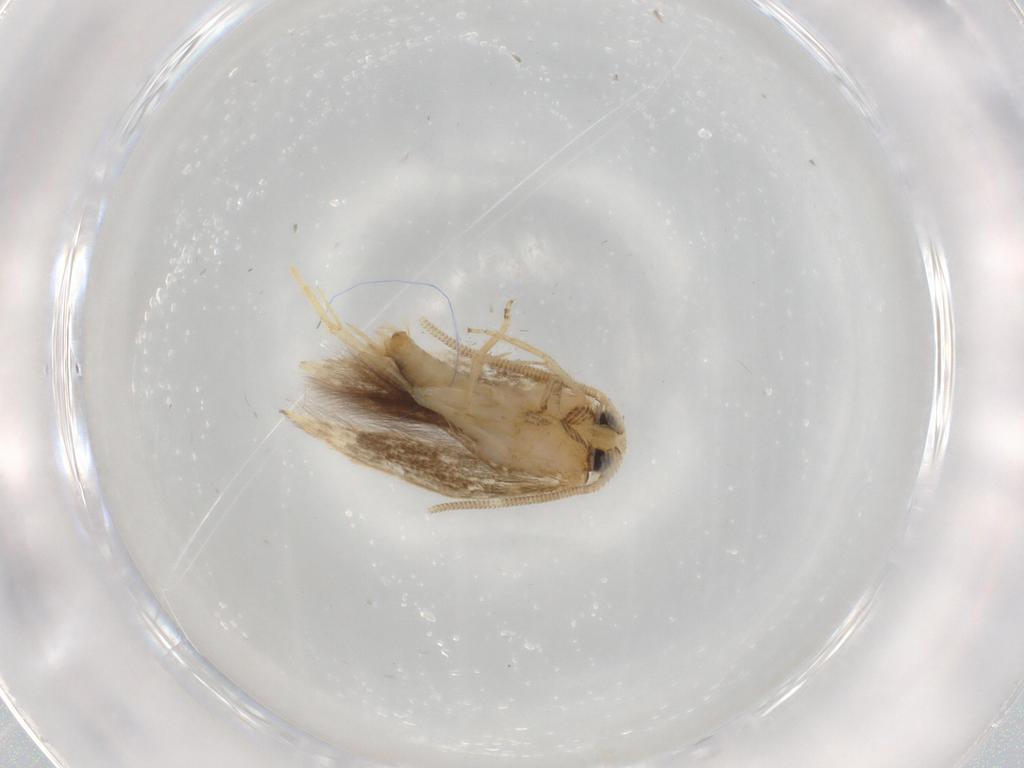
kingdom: Animalia
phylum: Arthropoda
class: Insecta
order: Lepidoptera
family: Opostegidae
